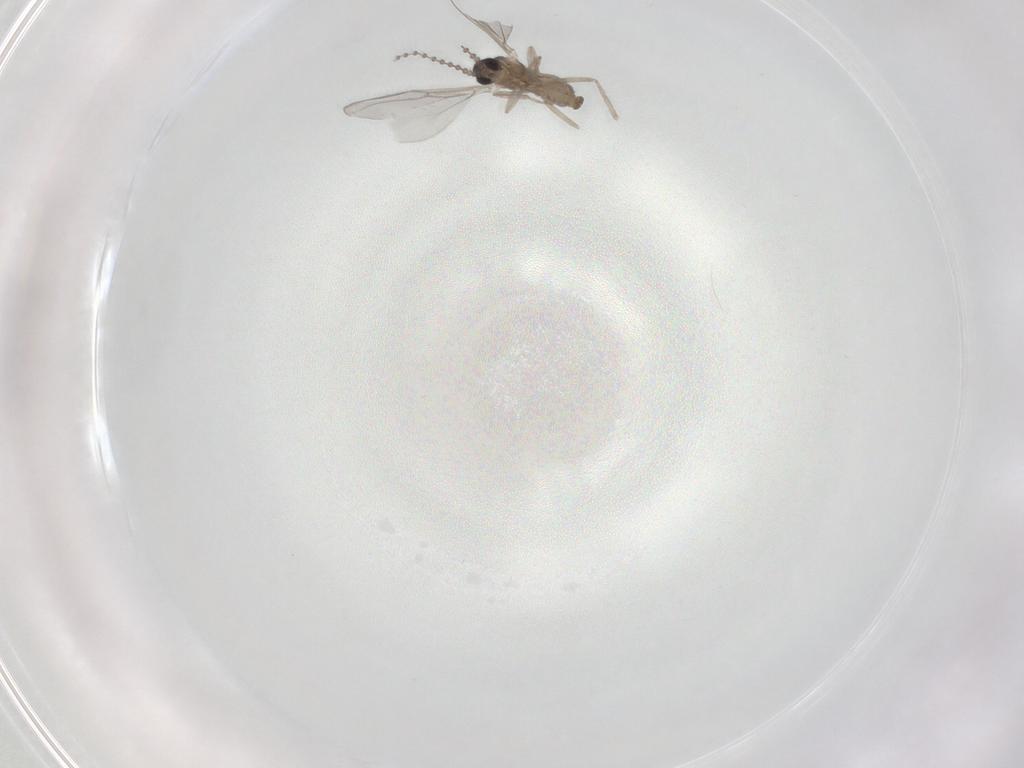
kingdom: Animalia
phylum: Arthropoda
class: Insecta
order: Diptera
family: Cecidomyiidae
